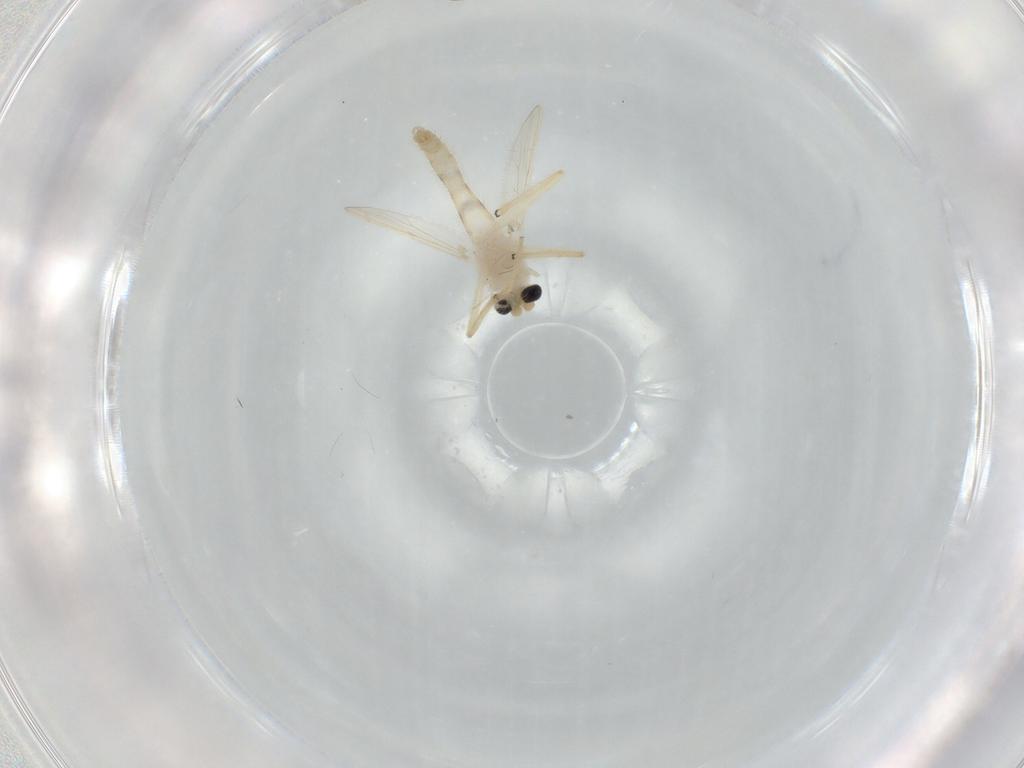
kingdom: Animalia
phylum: Arthropoda
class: Insecta
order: Diptera
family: Chironomidae
